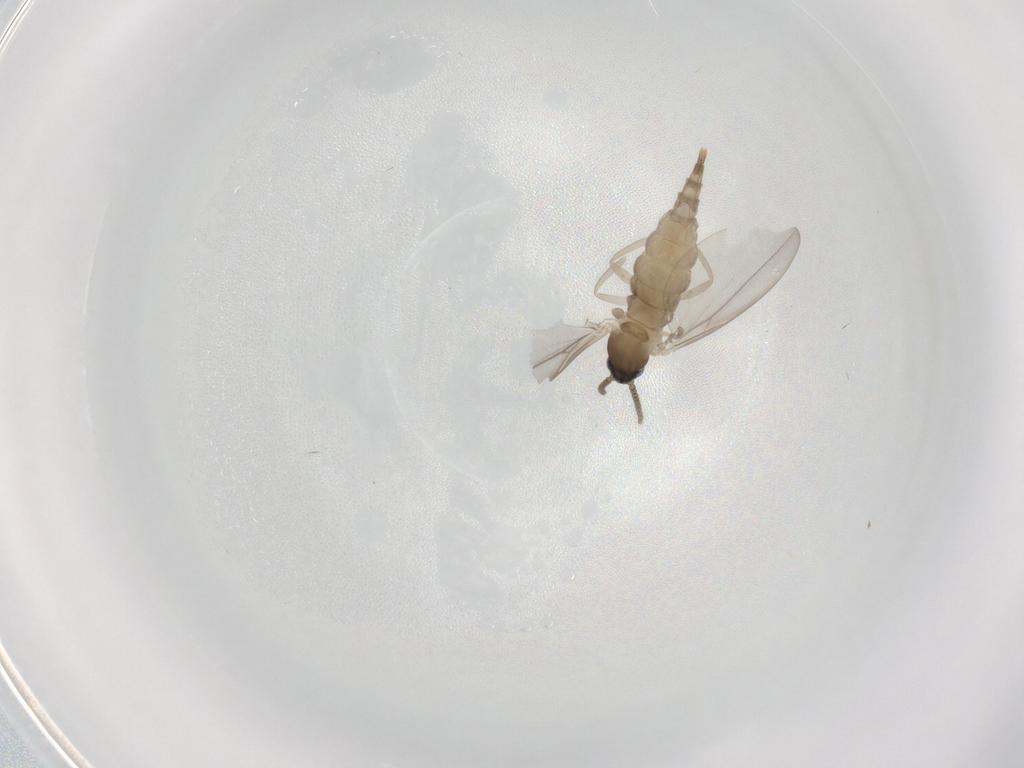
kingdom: Animalia
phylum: Arthropoda
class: Insecta
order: Diptera
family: Cecidomyiidae
